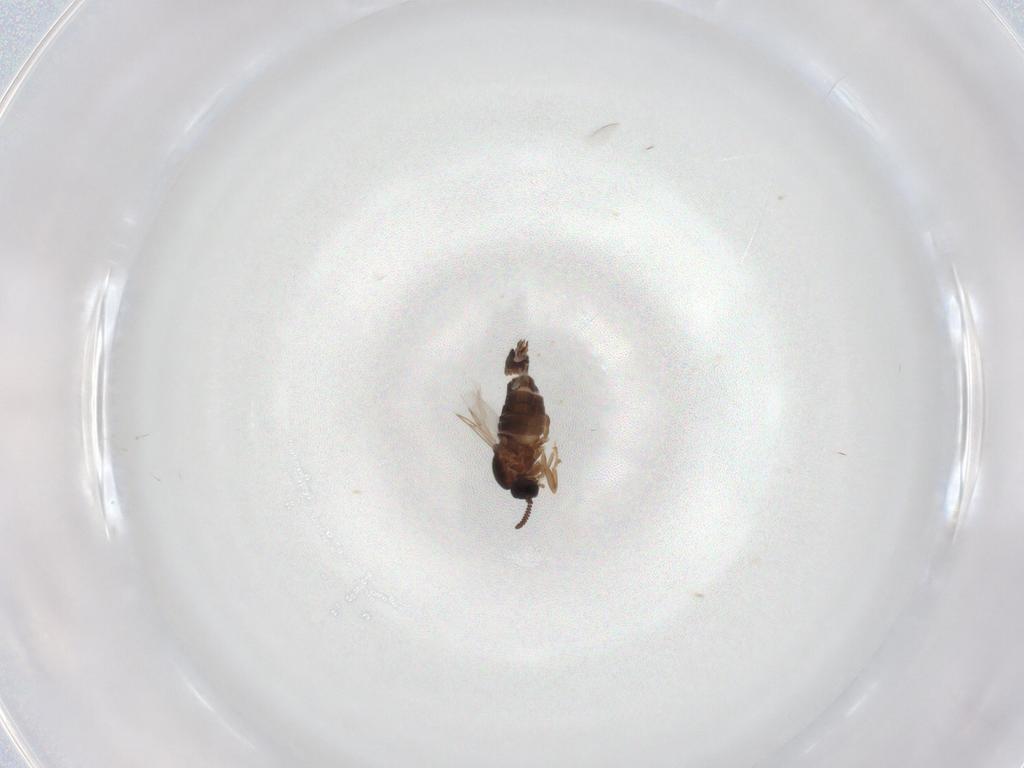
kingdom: Animalia
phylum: Arthropoda
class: Insecta
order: Diptera
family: Scatopsidae
